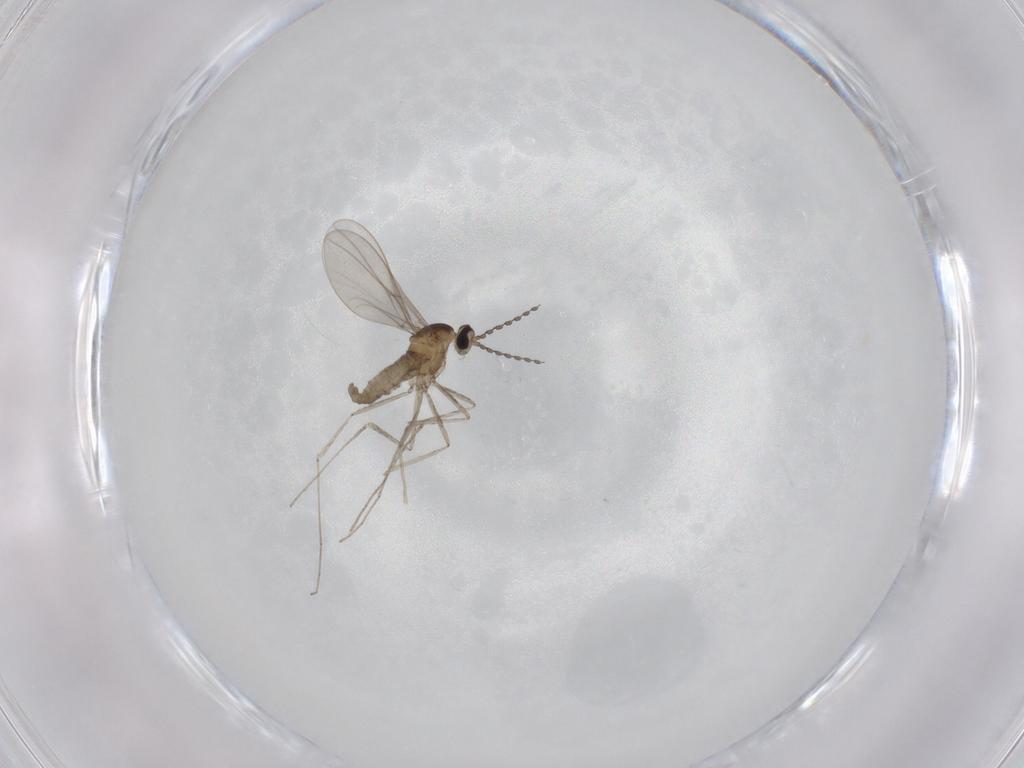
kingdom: Animalia
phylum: Arthropoda
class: Insecta
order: Diptera
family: Cecidomyiidae
